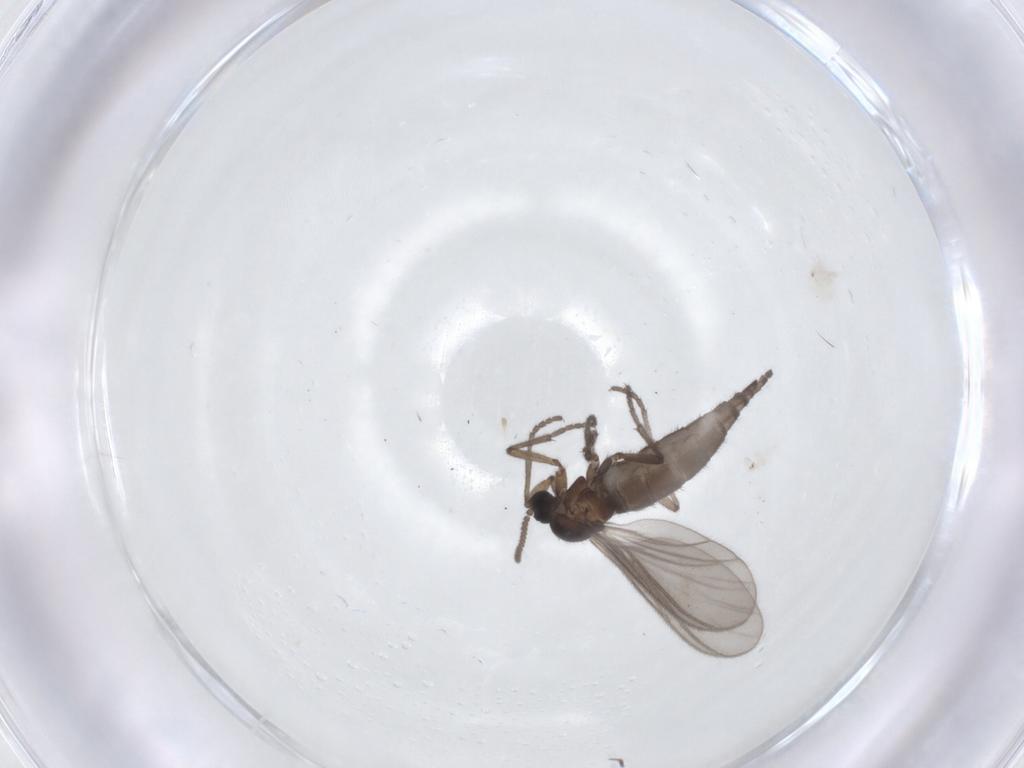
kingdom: Animalia
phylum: Arthropoda
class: Insecta
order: Diptera
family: Sciaridae
